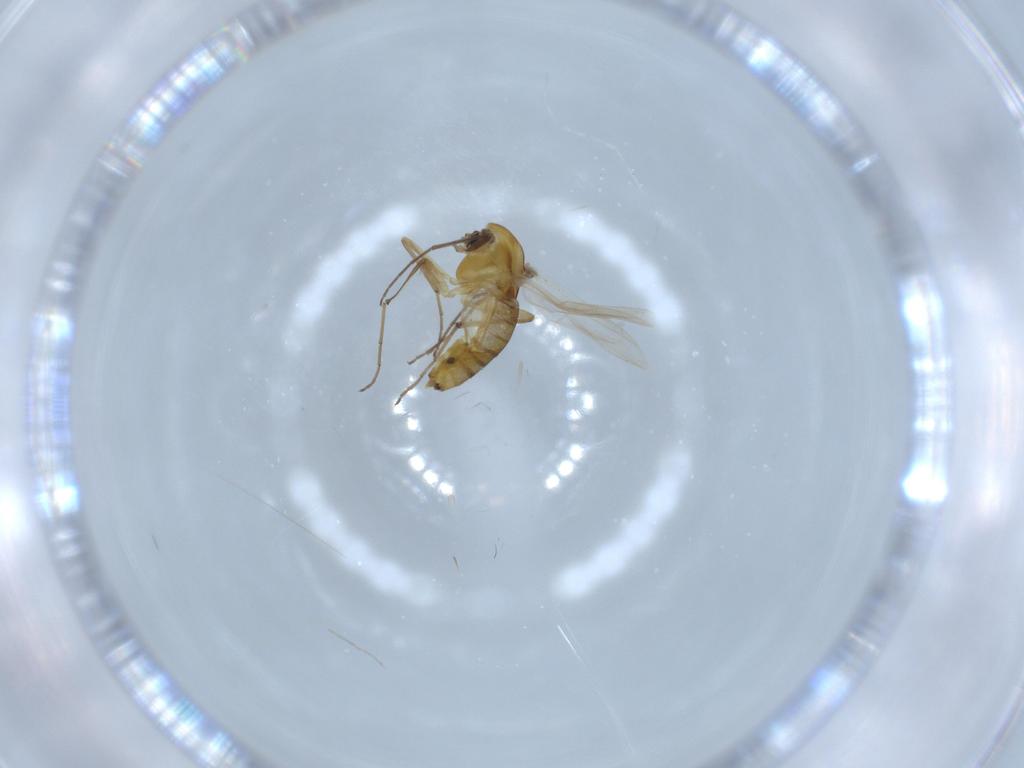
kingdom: Animalia
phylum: Arthropoda
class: Insecta
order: Diptera
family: Chironomidae
